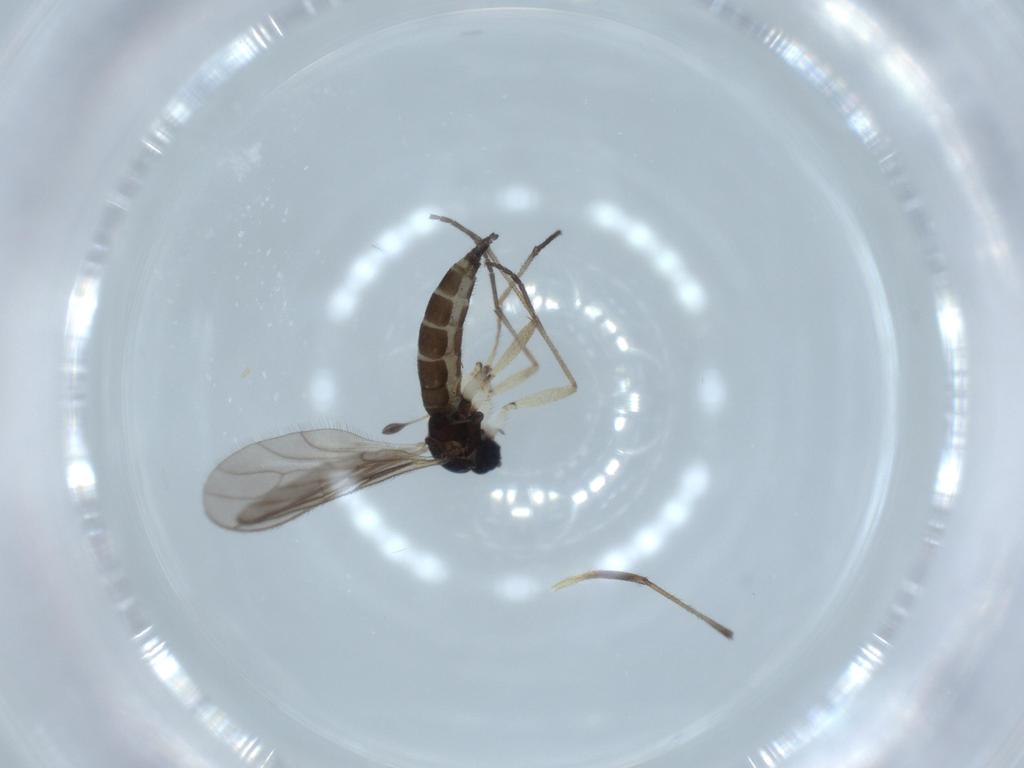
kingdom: Animalia
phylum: Arthropoda
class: Insecta
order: Diptera
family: Sciaridae
